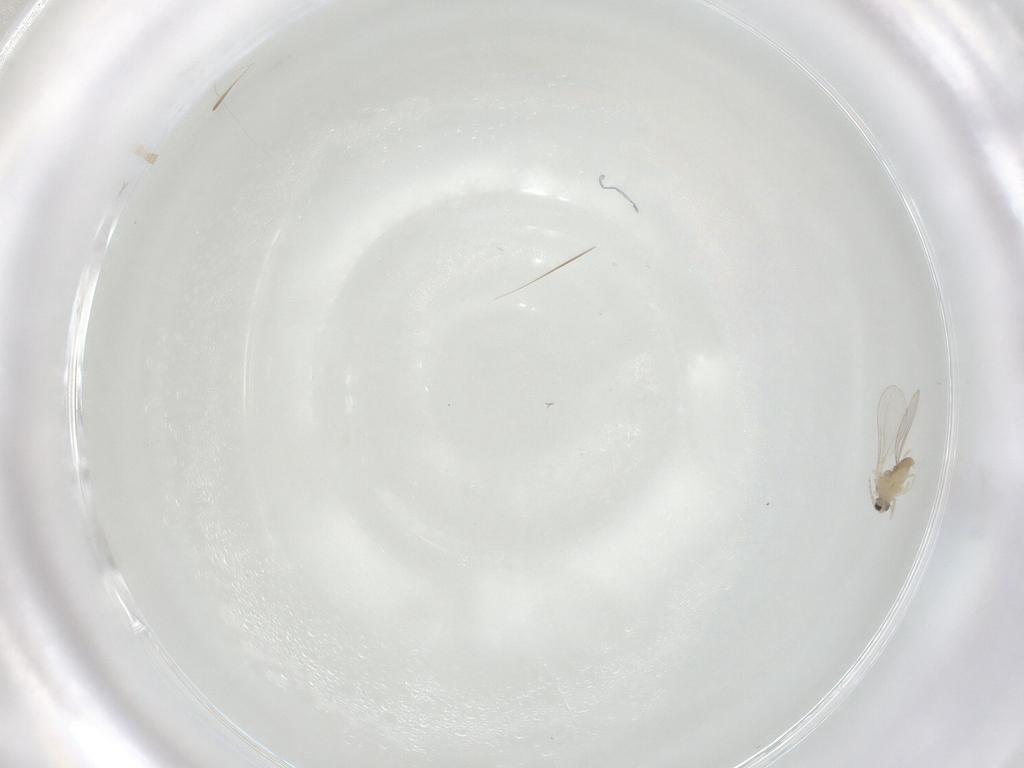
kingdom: Animalia
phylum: Arthropoda
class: Insecta
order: Diptera
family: Cecidomyiidae
